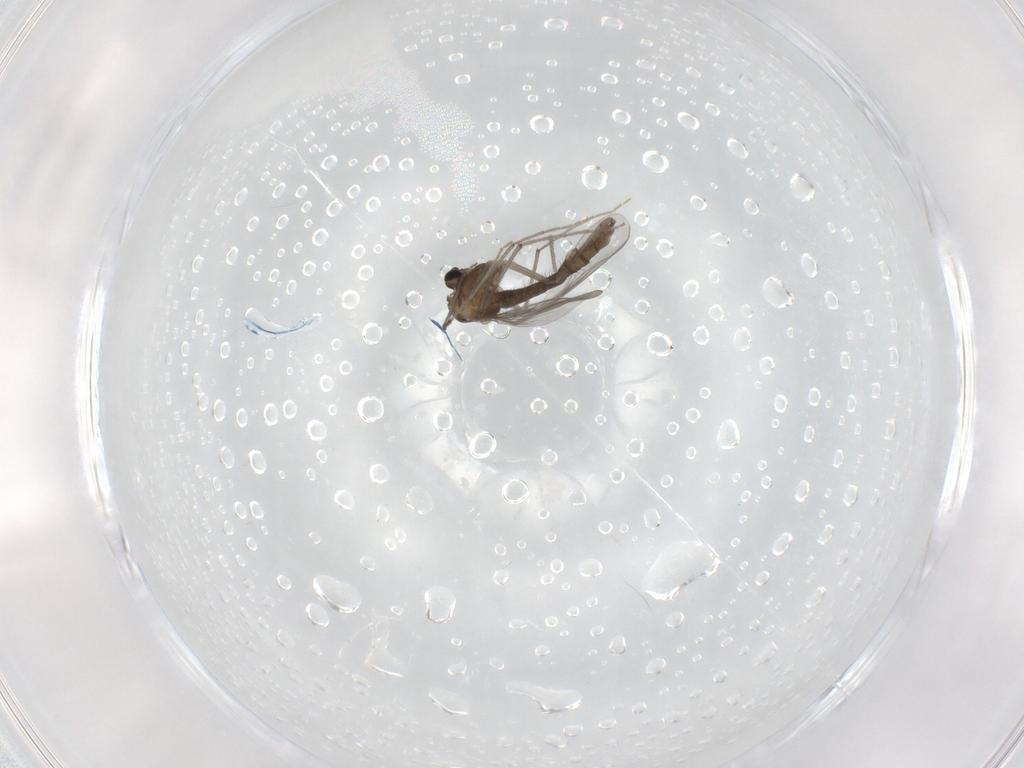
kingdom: Animalia
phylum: Arthropoda
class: Insecta
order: Diptera
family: Chironomidae
